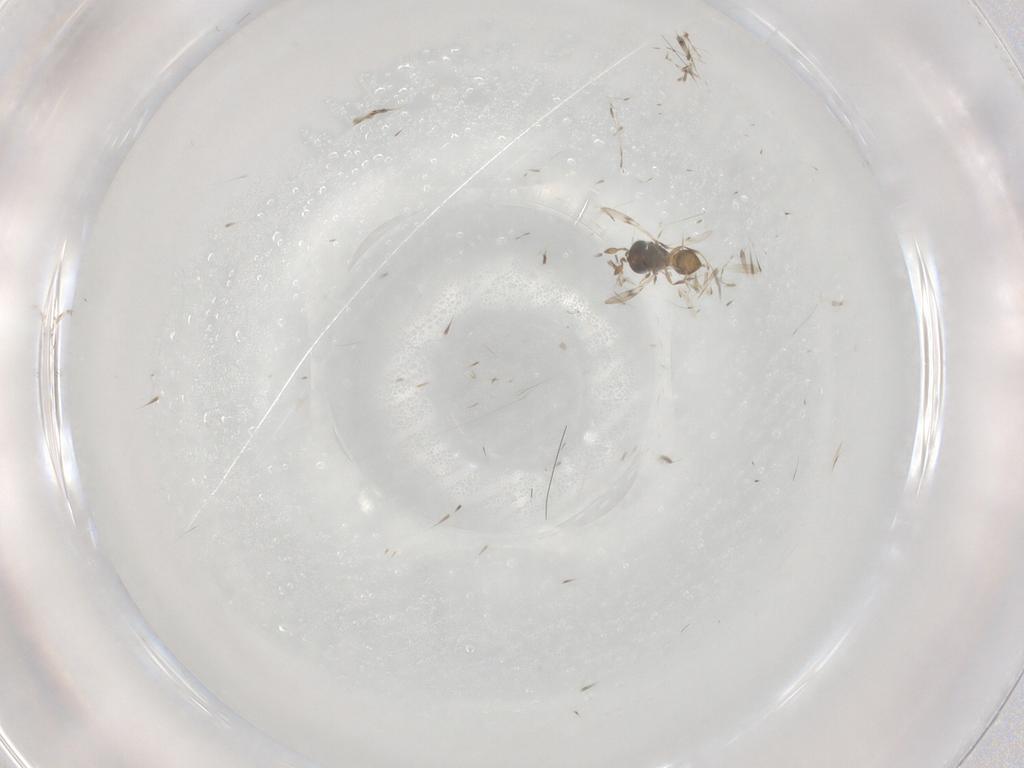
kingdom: Animalia
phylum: Arthropoda
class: Insecta
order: Hymenoptera
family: Scelionidae
